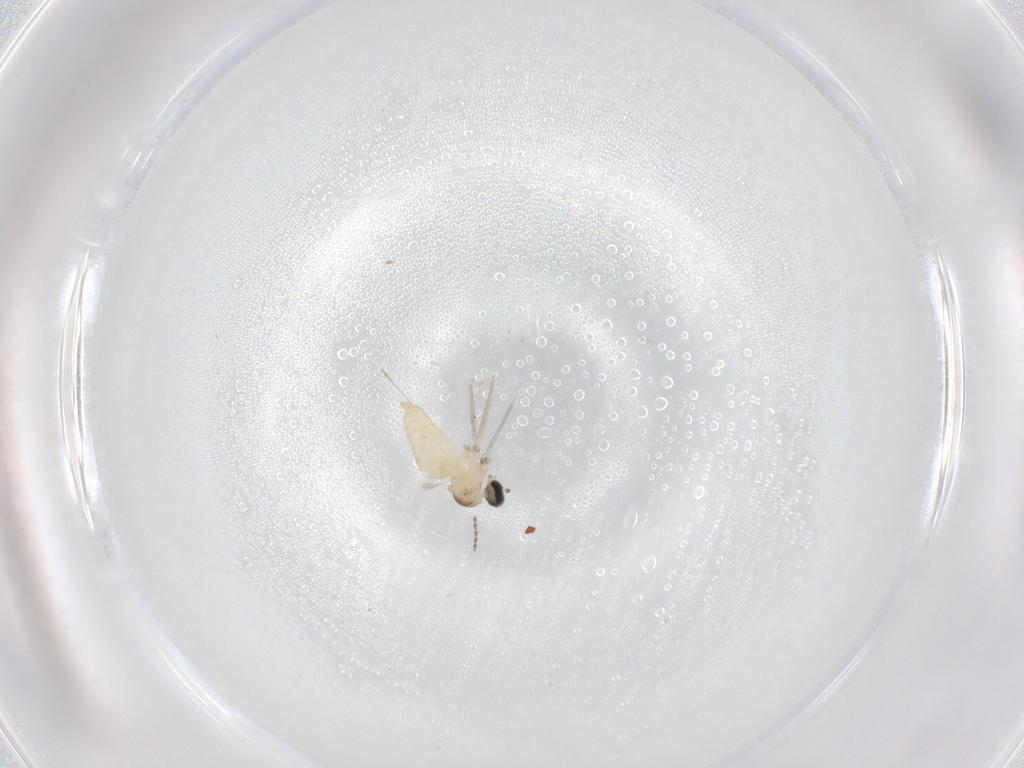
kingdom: Animalia
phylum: Arthropoda
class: Insecta
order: Diptera
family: Cecidomyiidae
